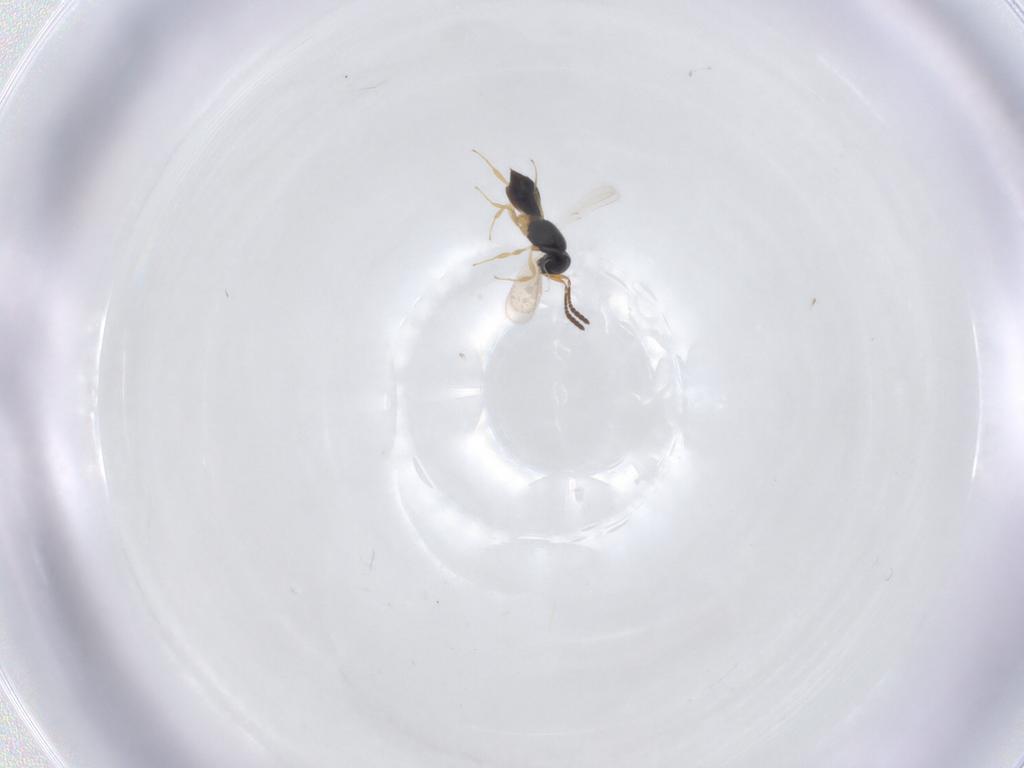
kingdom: Animalia
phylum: Arthropoda
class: Insecta
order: Hymenoptera
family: Scelionidae
